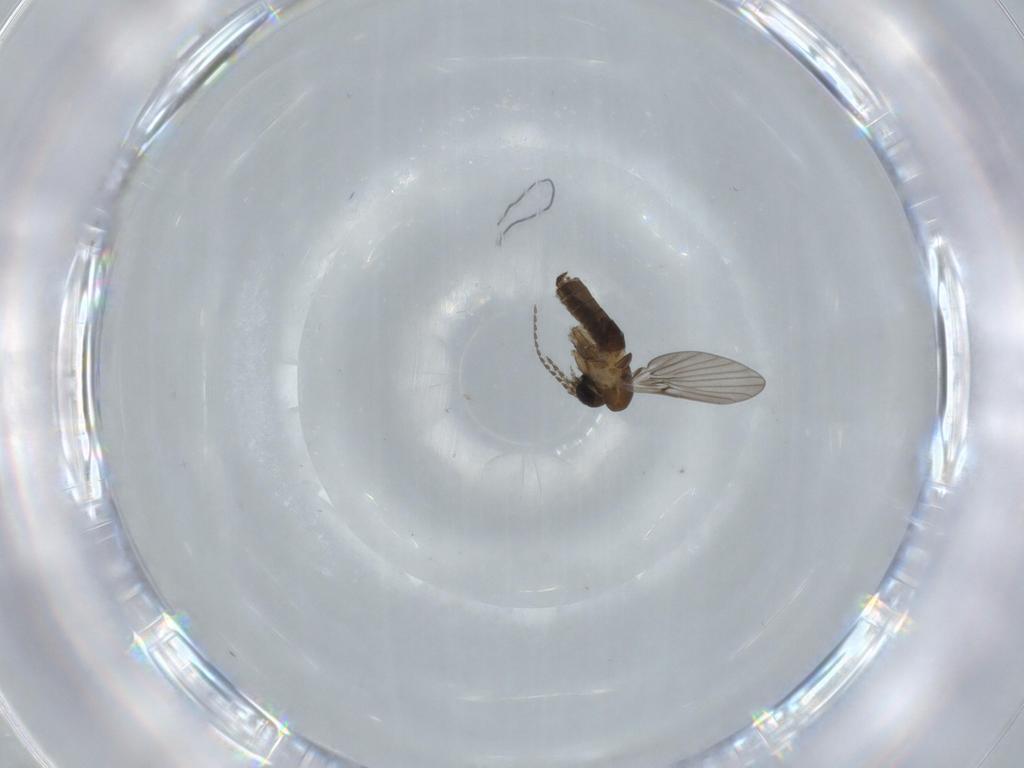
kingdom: Animalia
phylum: Arthropoda
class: Insecta
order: Diptera
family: Psychodidae
